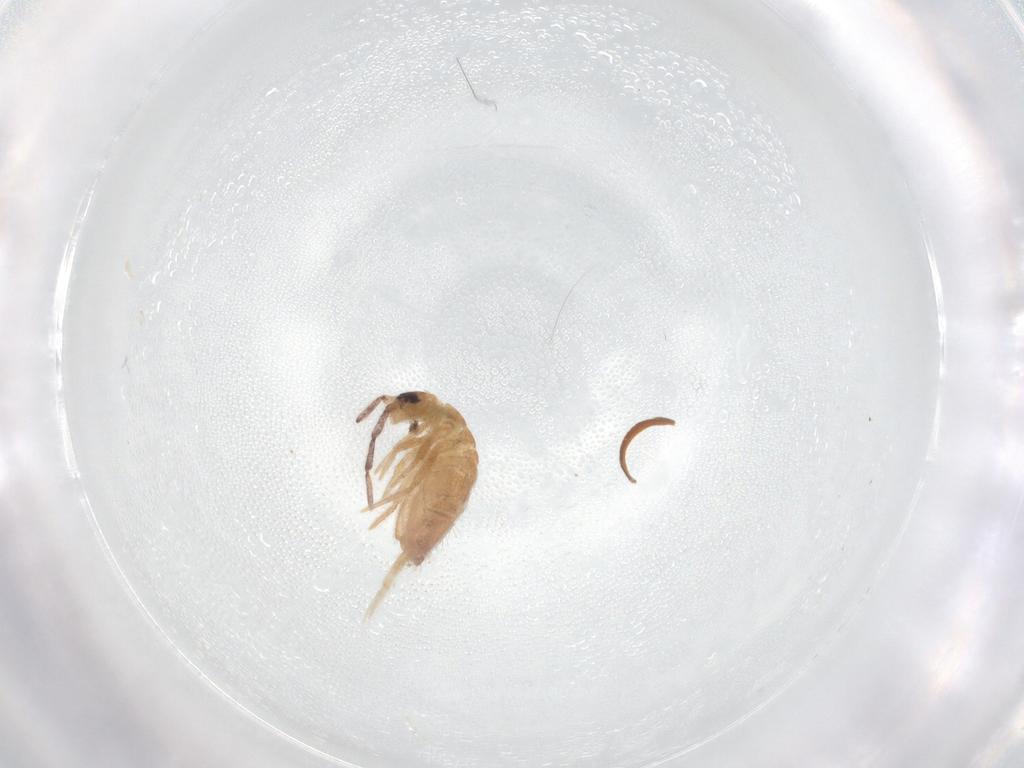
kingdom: Animalia
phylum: Arthropoda
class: Collembola
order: Entomobryomorpha
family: Entomobryidae
